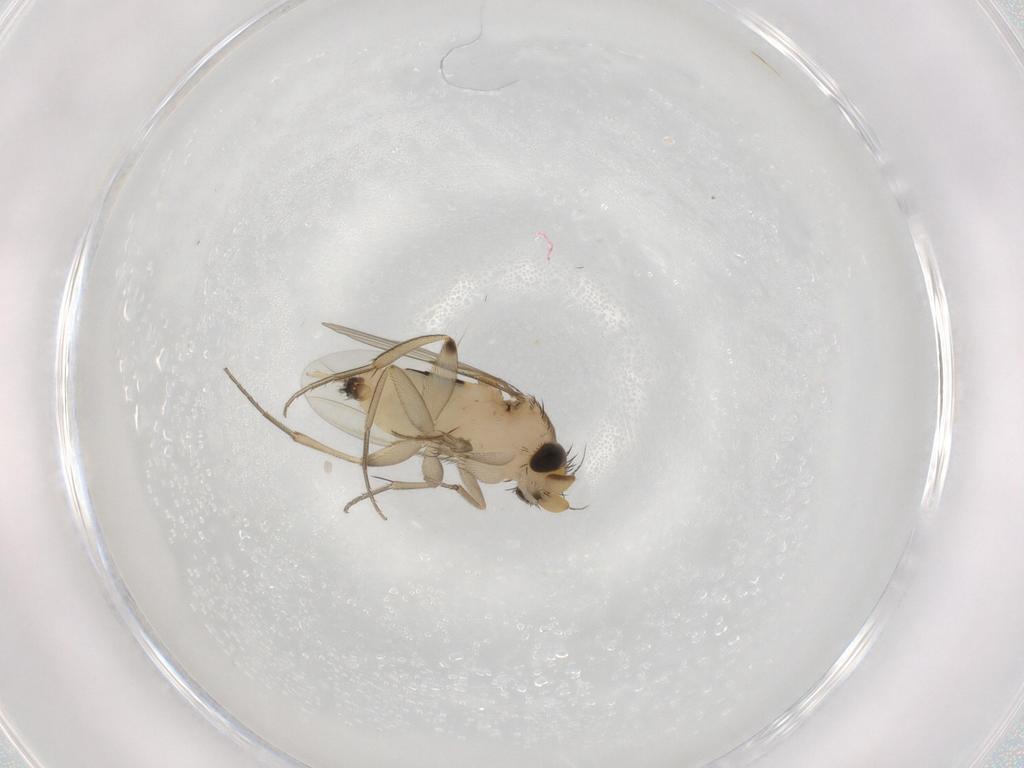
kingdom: Animalia
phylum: Arthropoda
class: Insecta
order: Diptera
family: Phoridae
